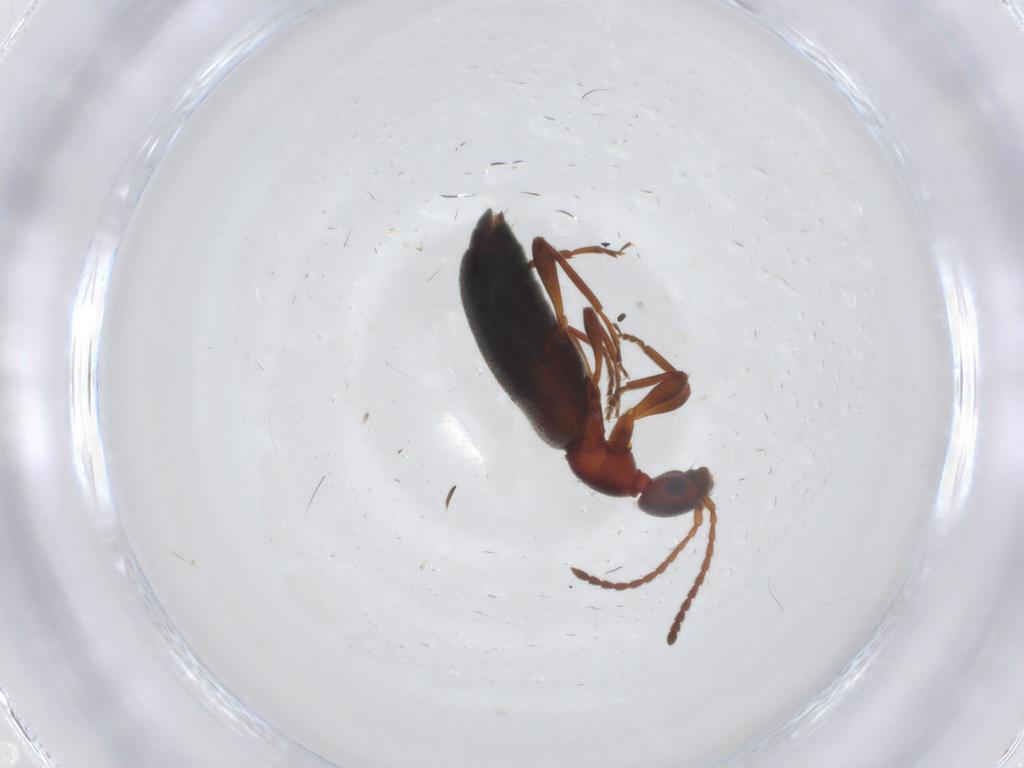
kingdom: Animalia
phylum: Arthropoda
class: Insecta
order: Coleoptera
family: Anthicidae
